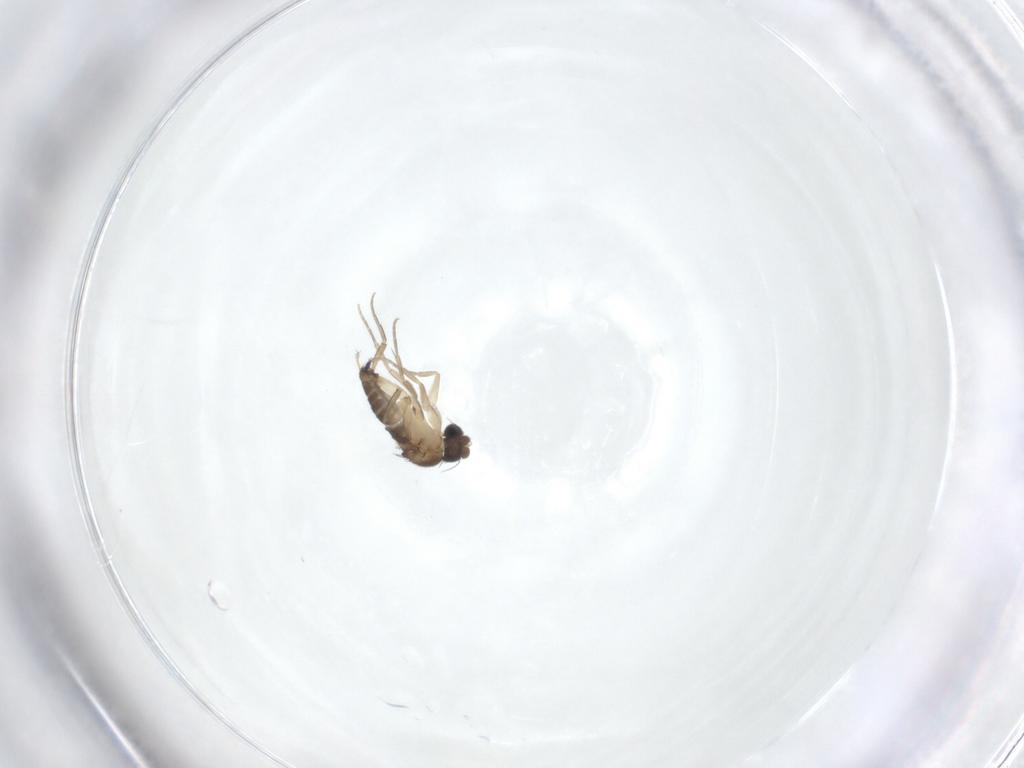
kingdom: Animalia
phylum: Arthropoda
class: Insecta
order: Diptera
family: Phoridae
